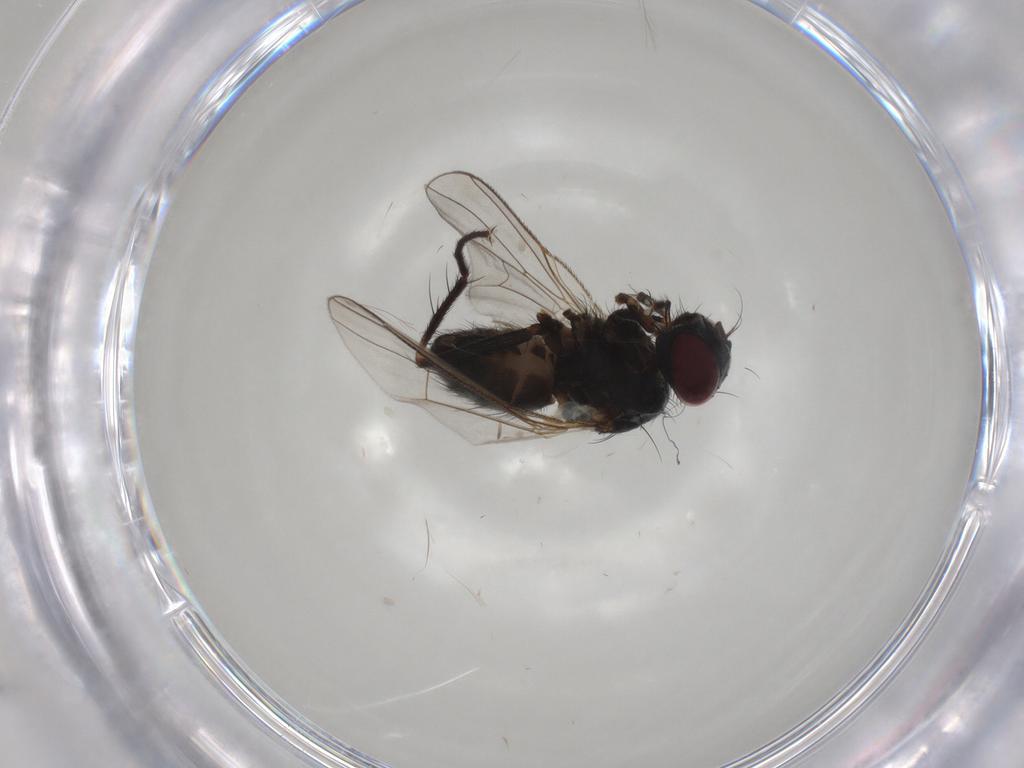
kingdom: Animalia
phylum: Arthropoda
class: Insecta
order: Diptera
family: Muscidae
